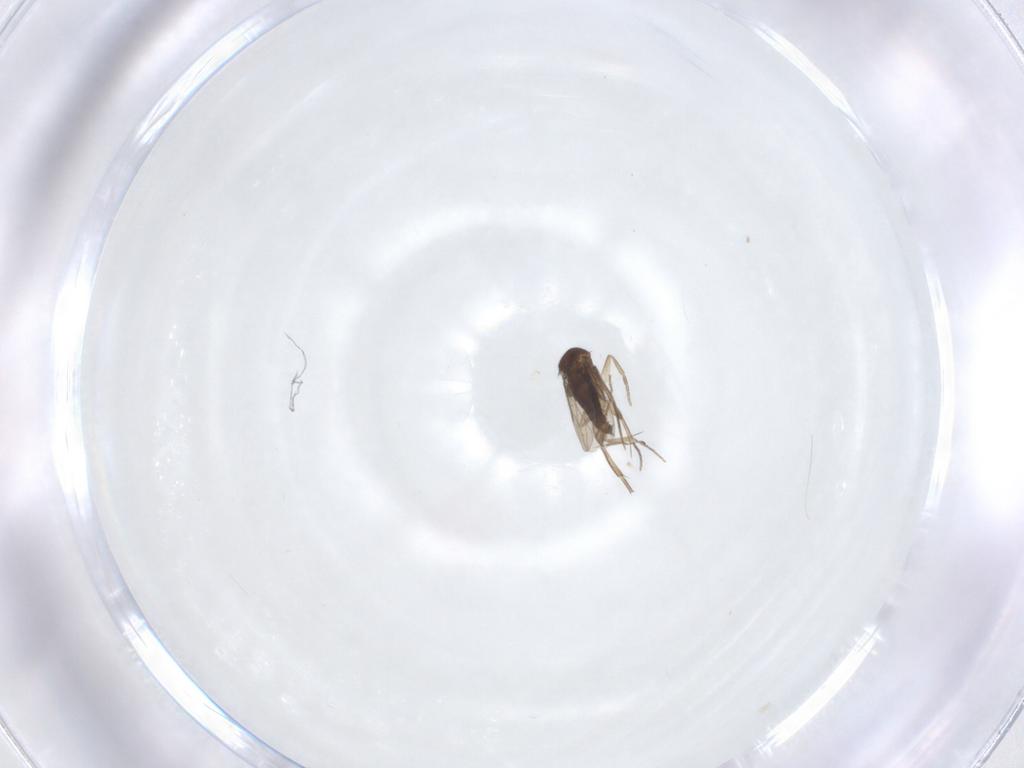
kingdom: Animalia
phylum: Arthropoda
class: Insecta
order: Diptera
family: Chironomidae
